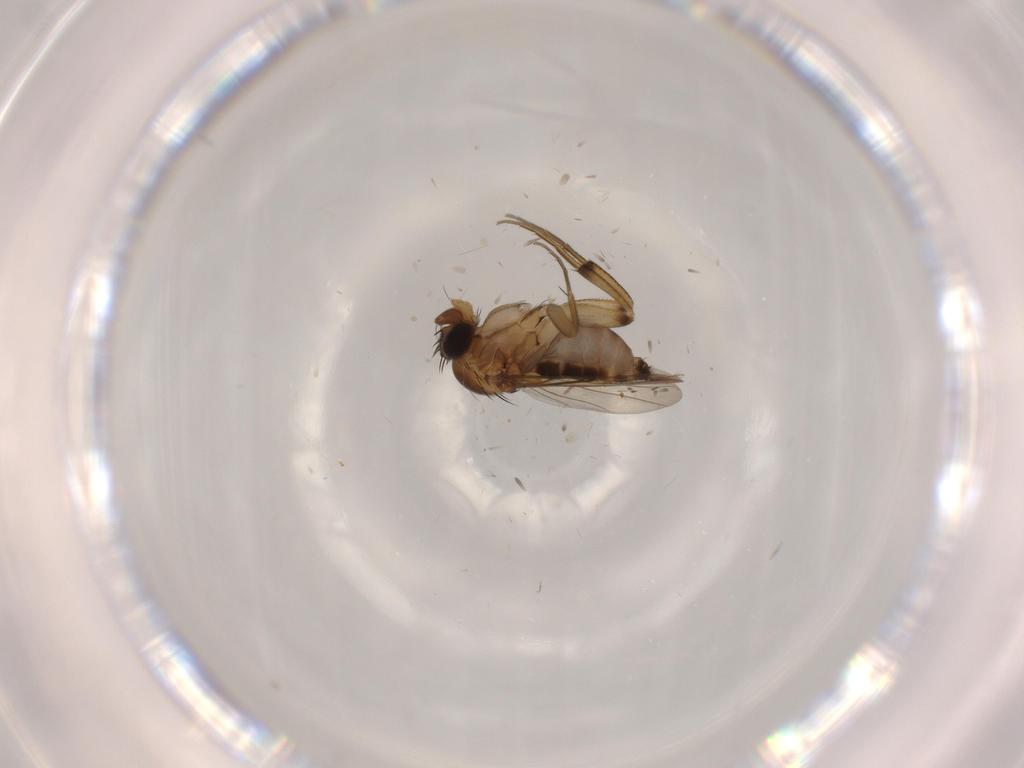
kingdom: Animalia
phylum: Arthropoda
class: Insecta
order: Diptera
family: Phoridae
